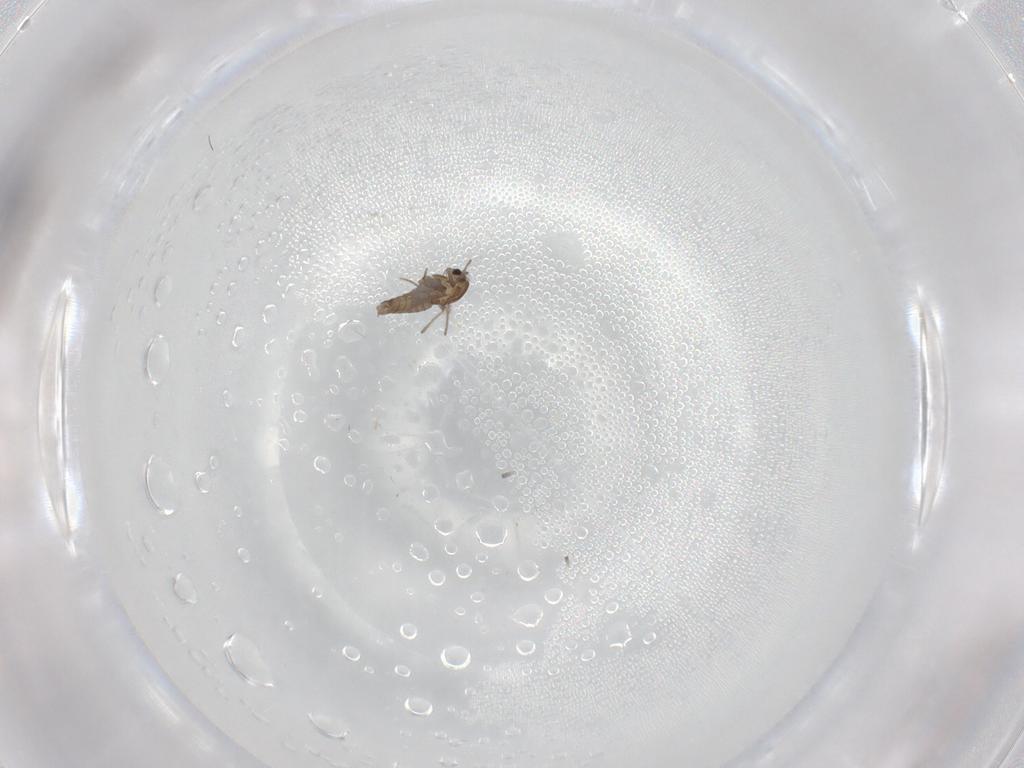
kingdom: Animalia
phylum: Arthropoda
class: Insecta
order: Diptera
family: Chironomidae
